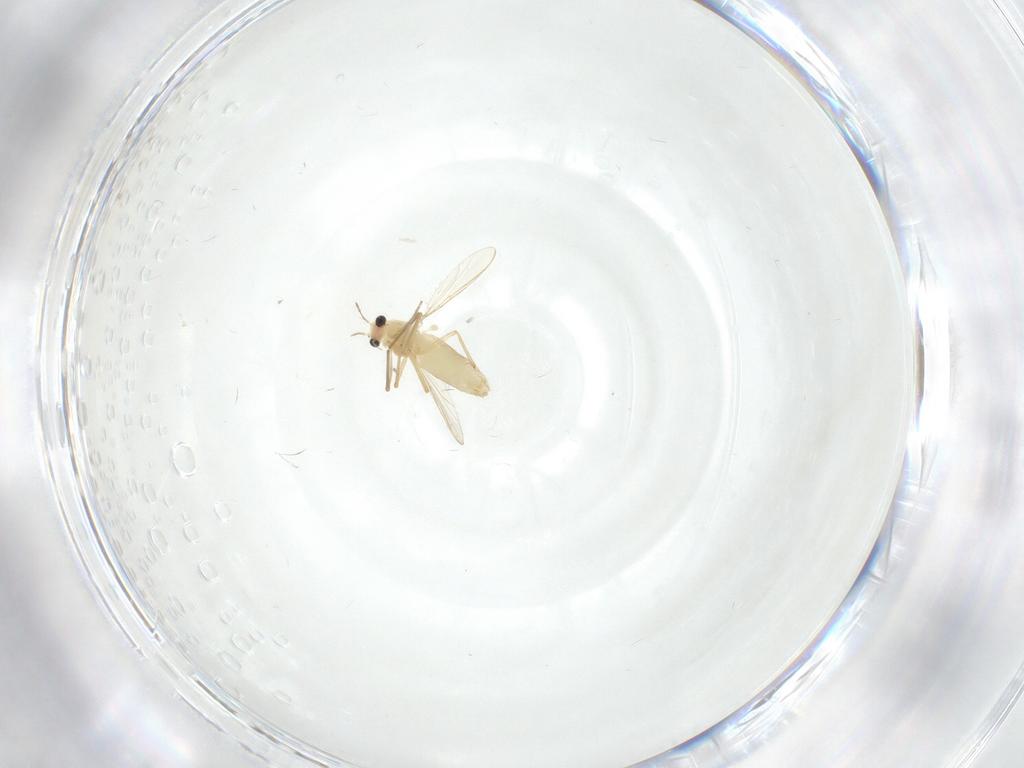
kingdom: Animalia
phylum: Arthropoda
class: Insecta
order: Diptera
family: Chironomidae
